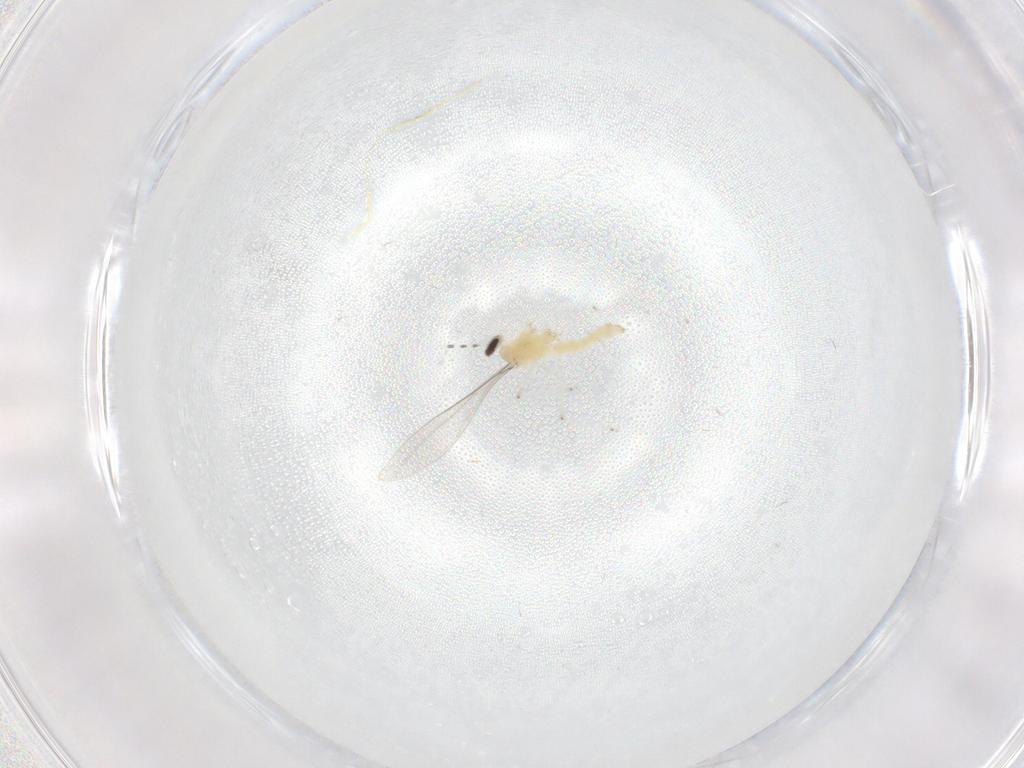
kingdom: Animalia
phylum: Arthropoda
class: Insecta
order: Diptera
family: Cecidomyiidae
